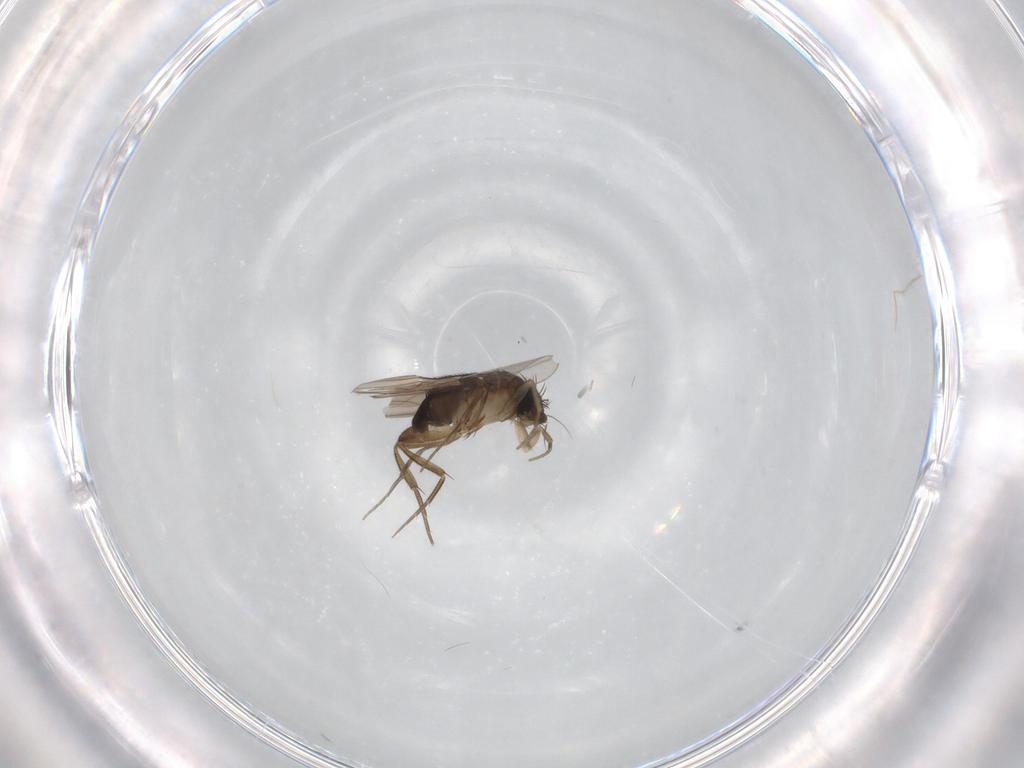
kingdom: Animalia
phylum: Arthropoda
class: Insecta
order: Diptera
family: Phoridae
